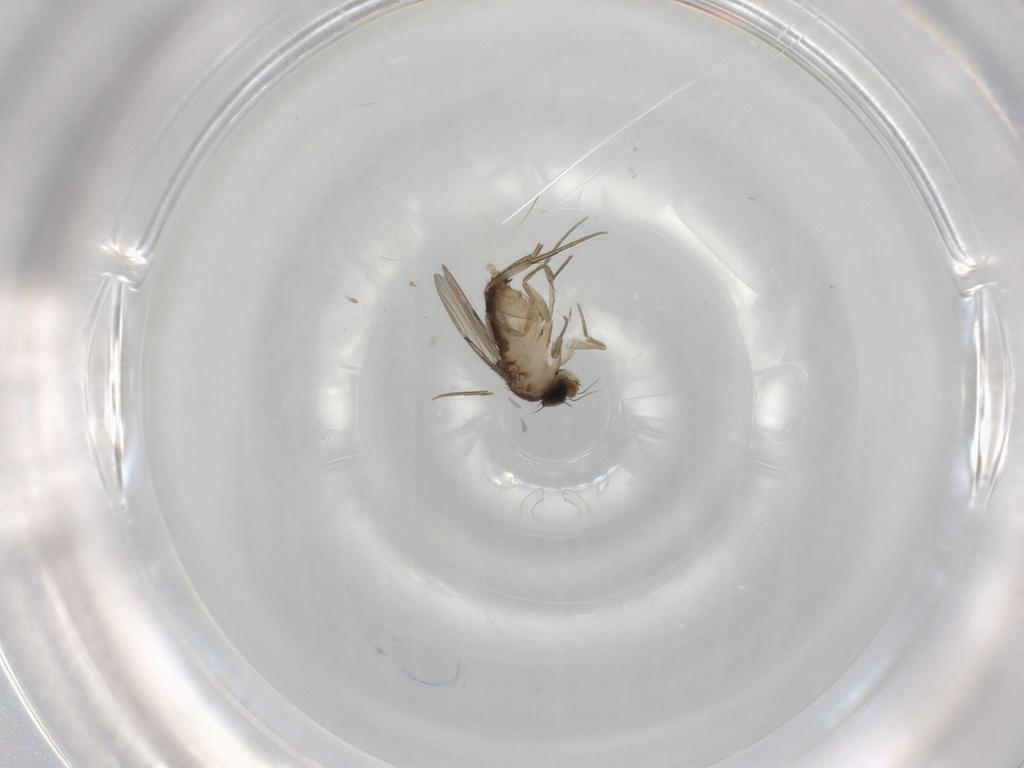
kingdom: Animalia
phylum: Arthropoda
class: Insecta
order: Diptera
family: Phoridae
